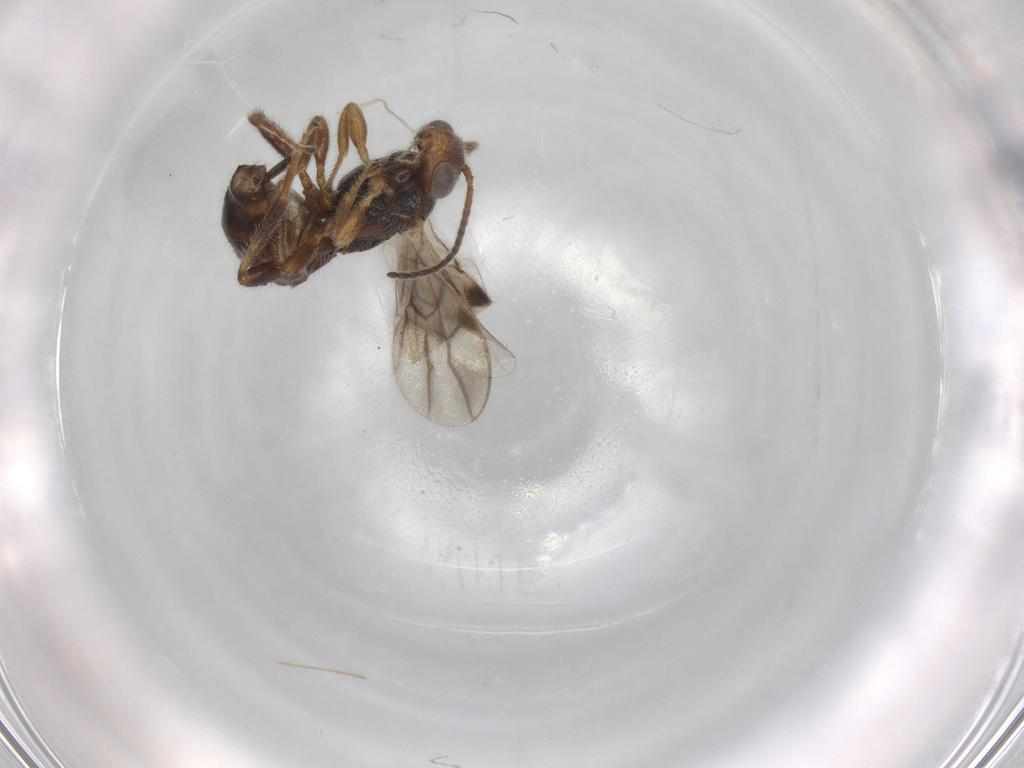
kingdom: Animalia
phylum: Arthropoda
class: Insecta
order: Hymenoptera
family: Braconidae
